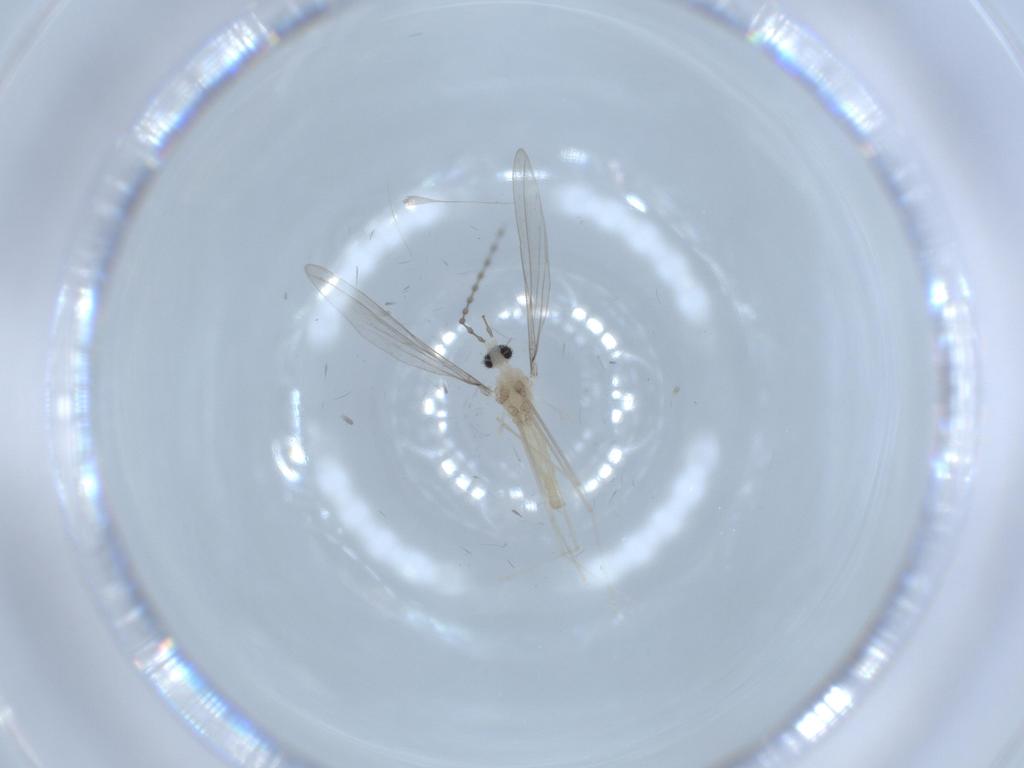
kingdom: Animalia
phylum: Arthropoda
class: Insecta
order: Diptera
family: Cecidomyiidae
